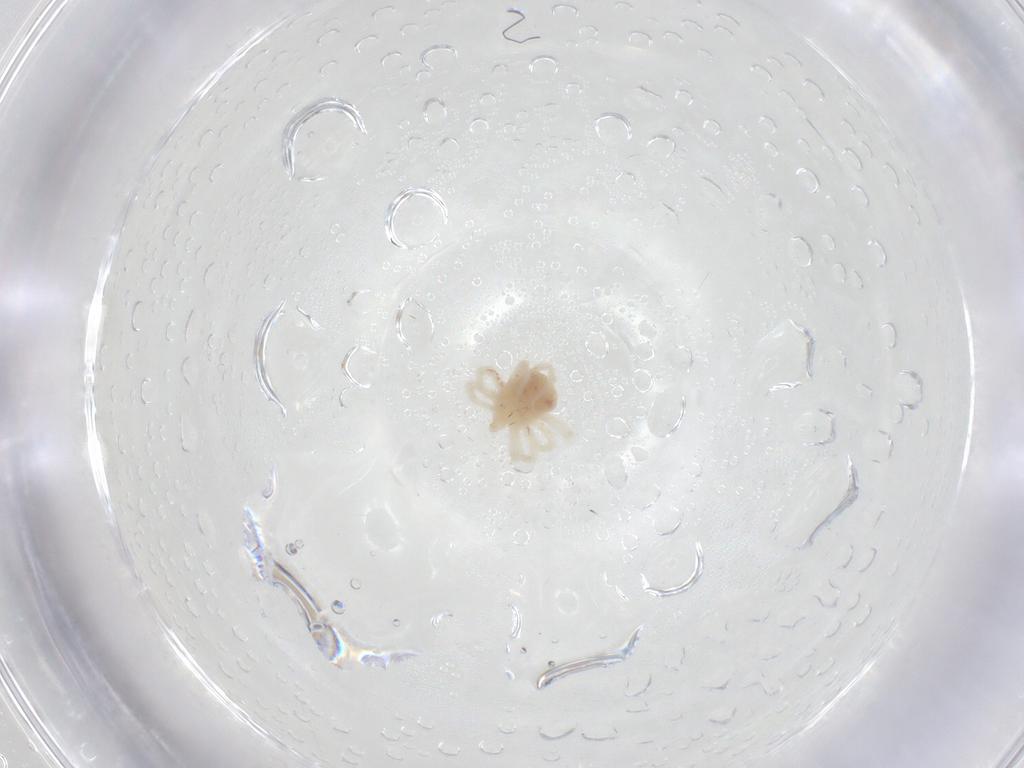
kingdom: Animalia
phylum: Arthropoda
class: Arachnida
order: Trombidiformes
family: Anystidae
